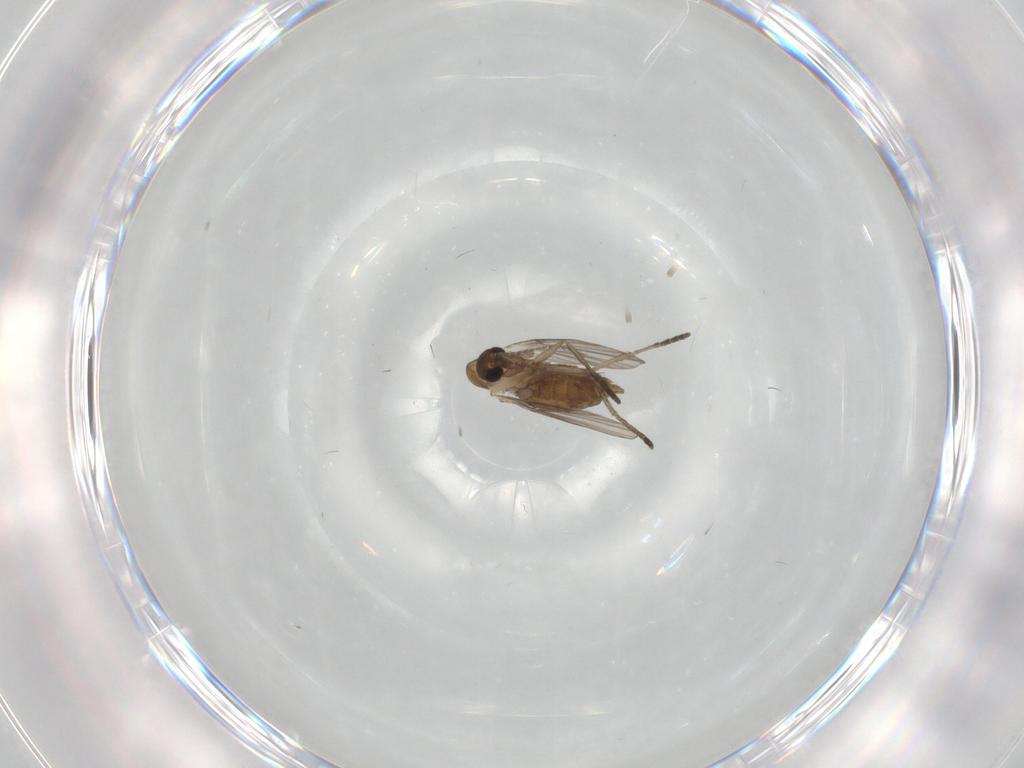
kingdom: Animalia
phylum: Arthropoda
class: Insecta
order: Diptera
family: Psychodidae
